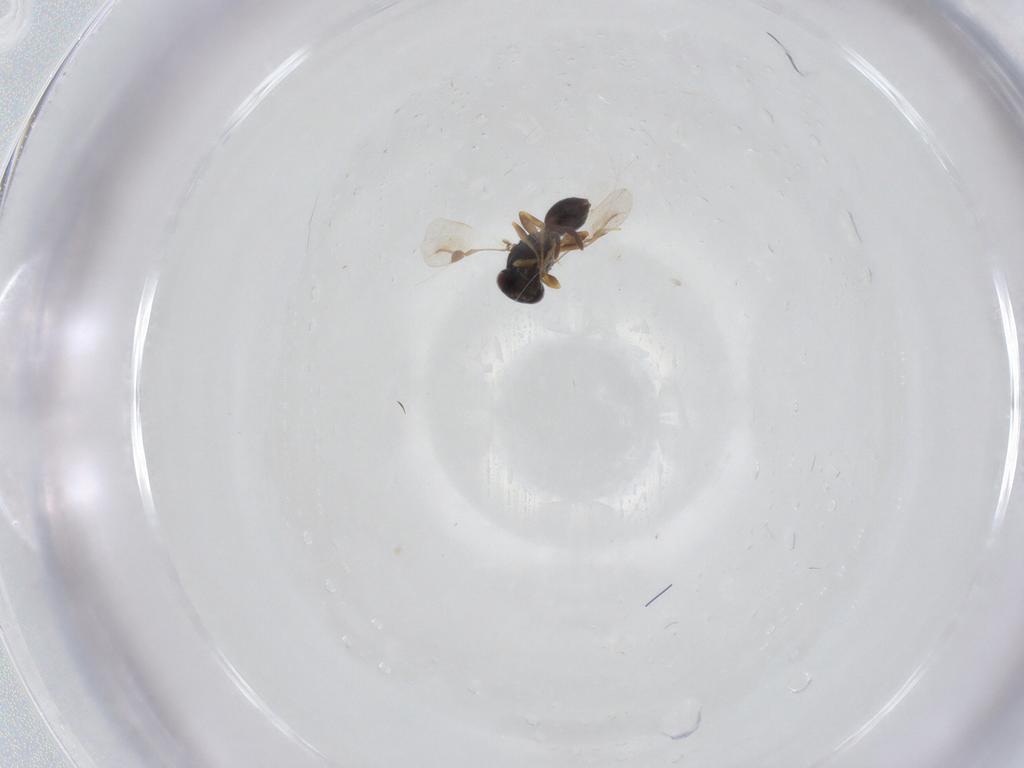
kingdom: Animalia
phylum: Arthropoda
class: Insecta
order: Hymenoptera
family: Megaspilidae
